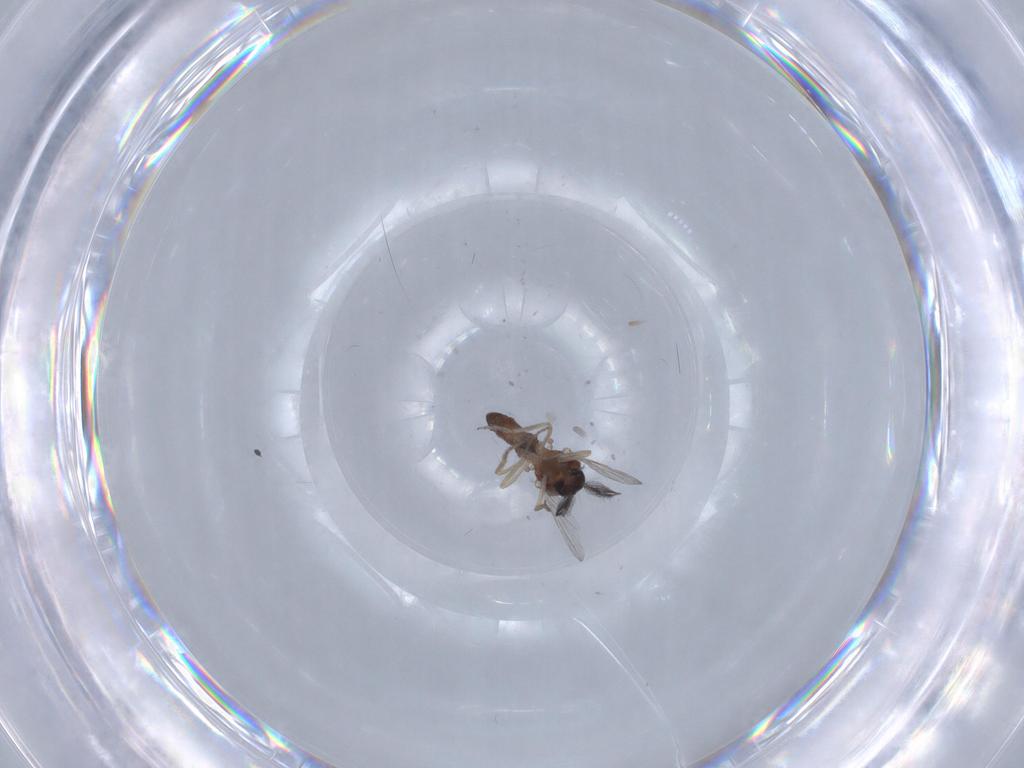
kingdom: Animalia
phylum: Arthropoda
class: Insecta
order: Diptera
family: Ceratopogonidae
